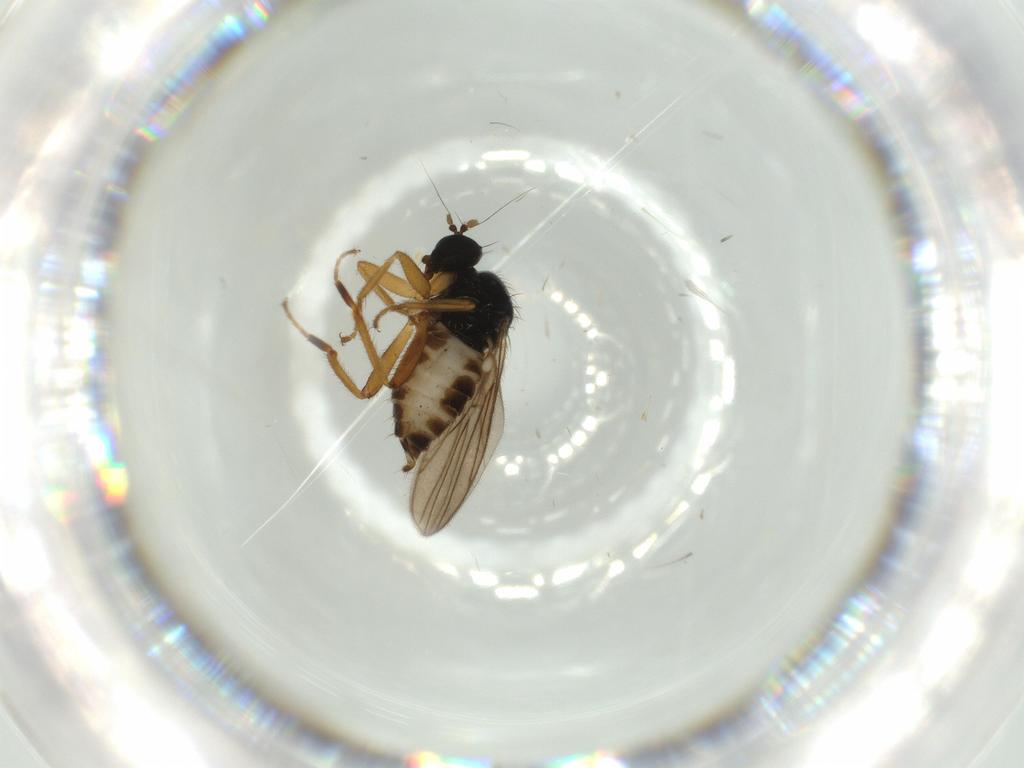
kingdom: Animalia
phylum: Arthropoda
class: Insecta
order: Diptera
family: Hybotidae
